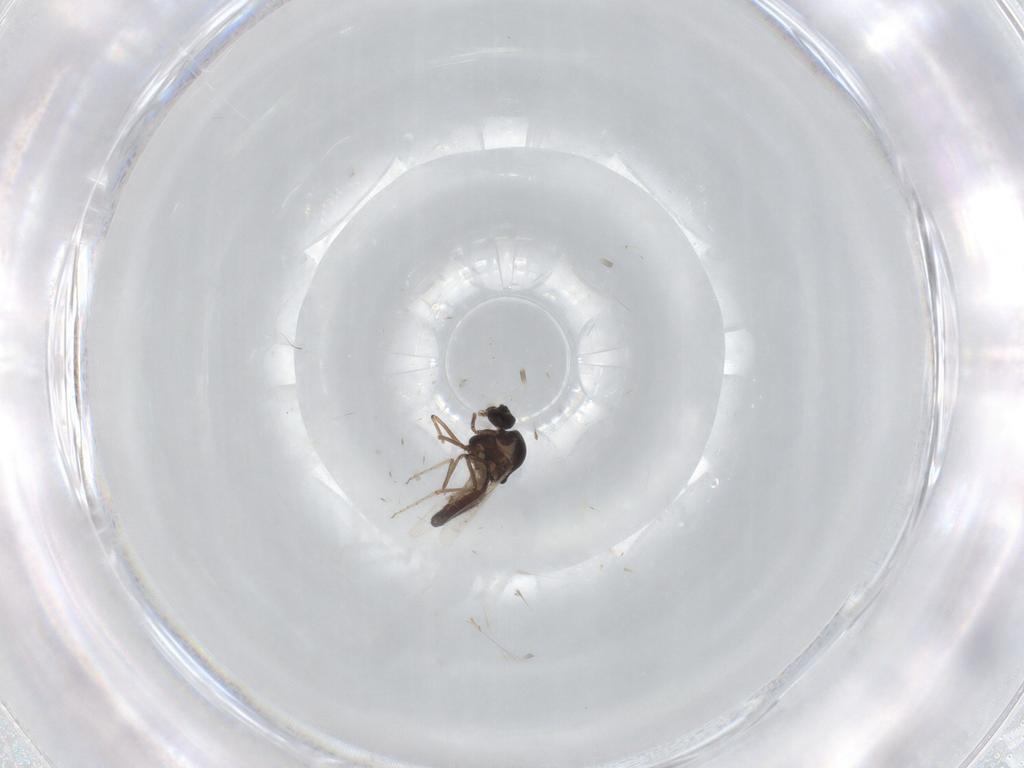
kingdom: Animalia
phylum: Arthropoda
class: Insecta
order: Diptera
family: Ceratopogonidae
